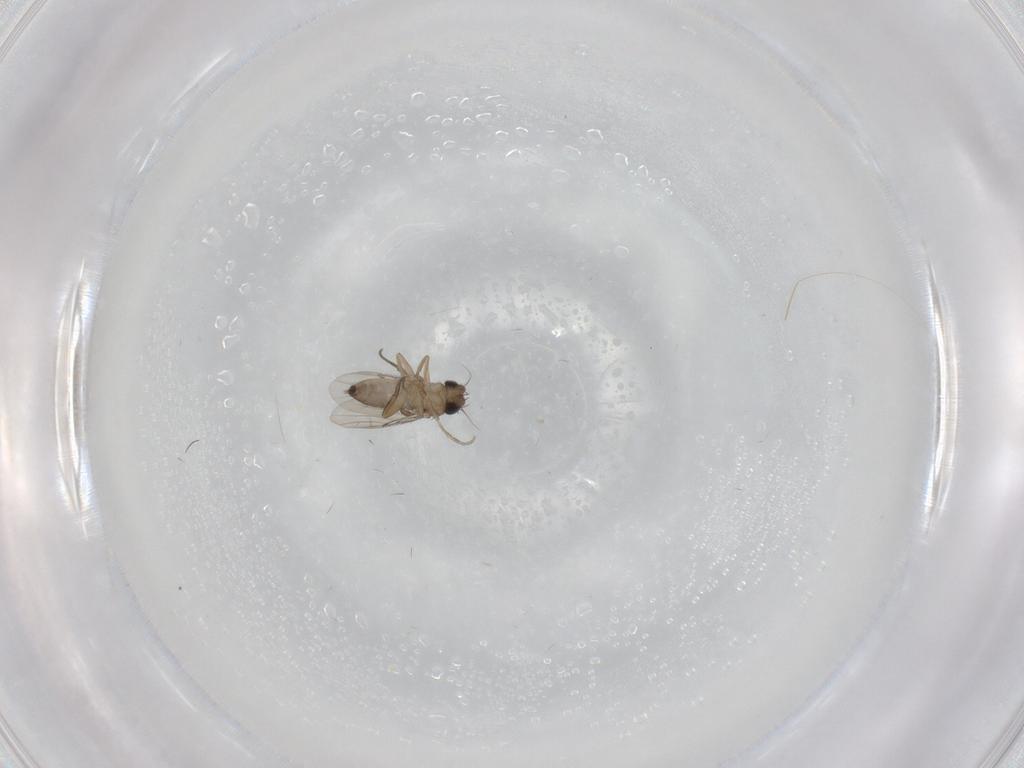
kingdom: Animalia
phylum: Arthropoda
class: Insecta
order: Diptera
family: Phoridae
